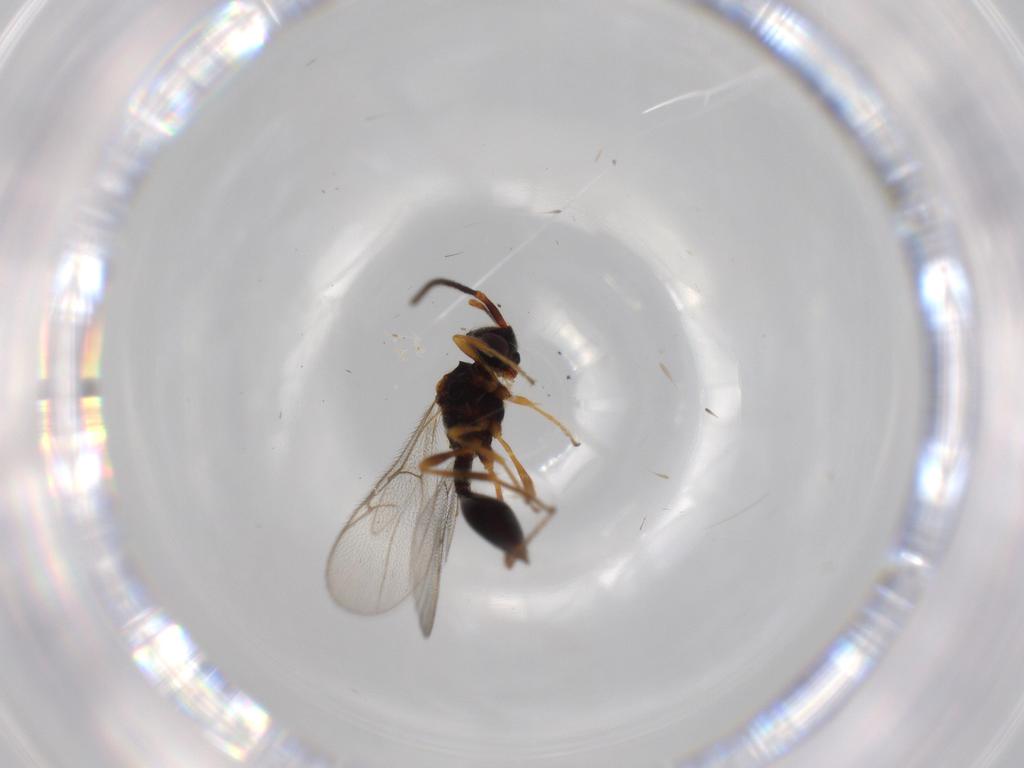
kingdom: Animalia
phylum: Arthropoda
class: Insecta
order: Hymenoptera
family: Diapriidae
